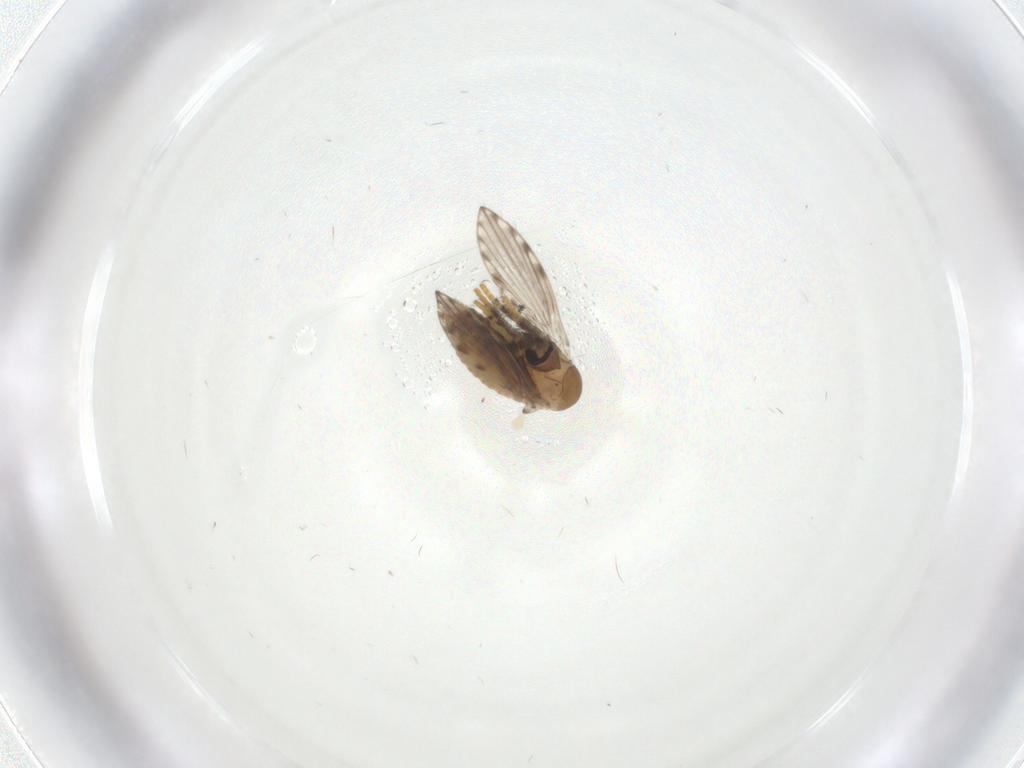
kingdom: Animalia
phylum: Arthropoda
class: Insecta
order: Diptera
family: Psychodidae
